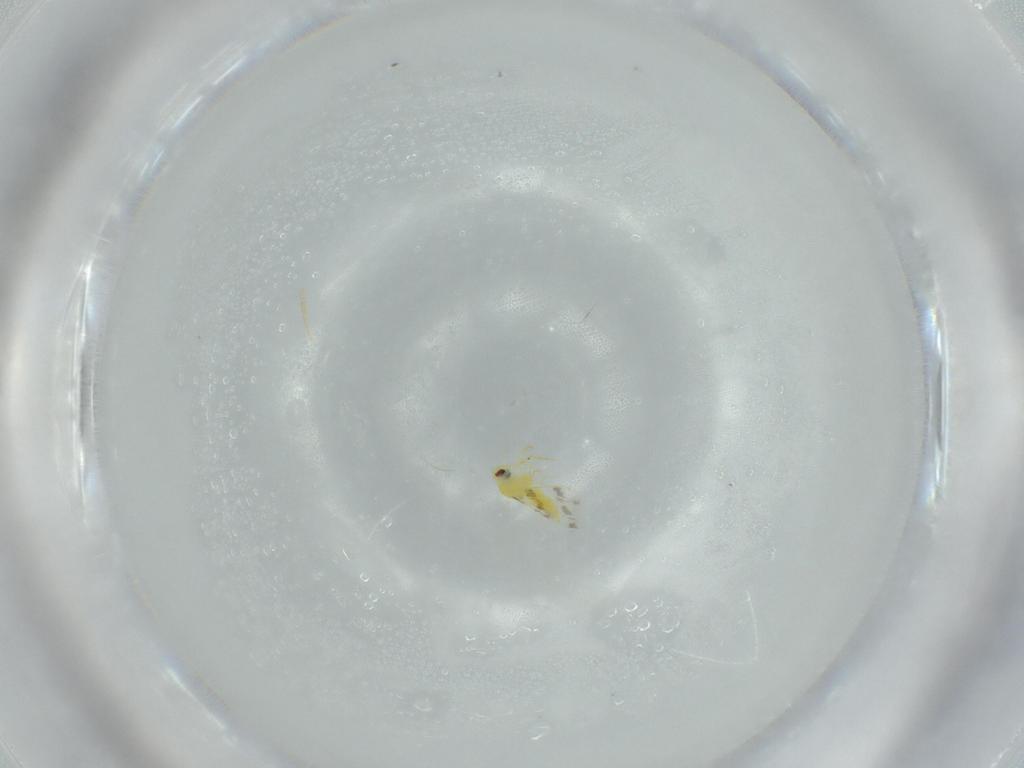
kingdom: Animalia
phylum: Arthropoda
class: Insecta
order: Hemiptera
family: Aleyrodidae
